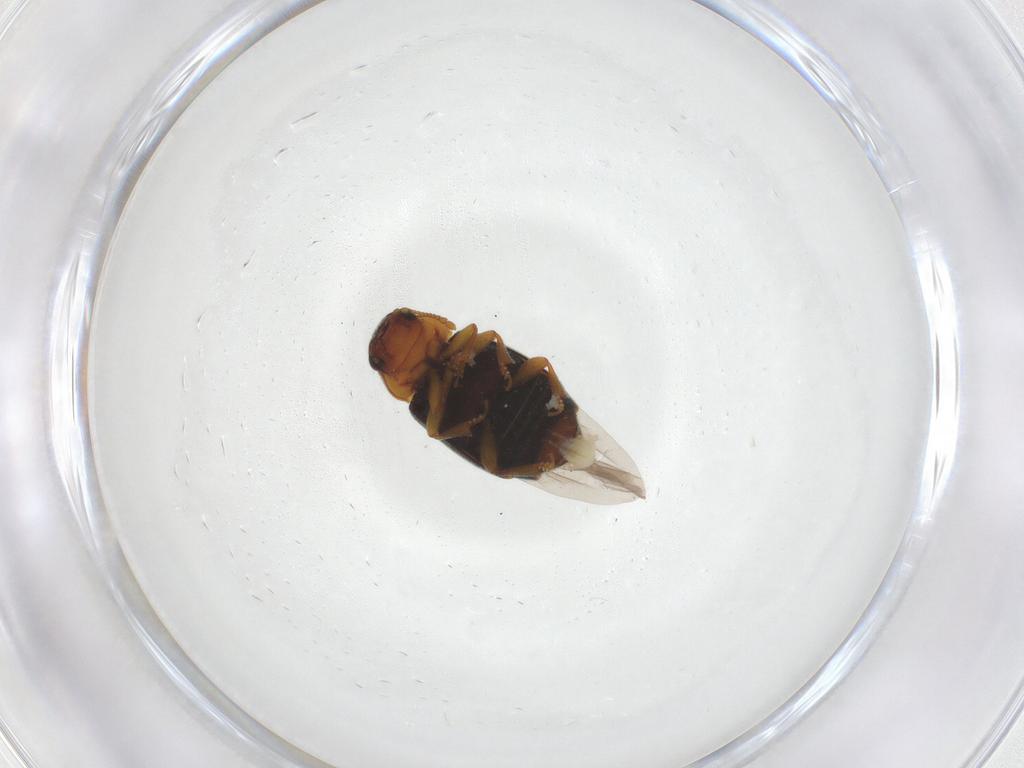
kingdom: Animalia
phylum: Arthropoda
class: Insecta
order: Coleoptera
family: Kateretidae
